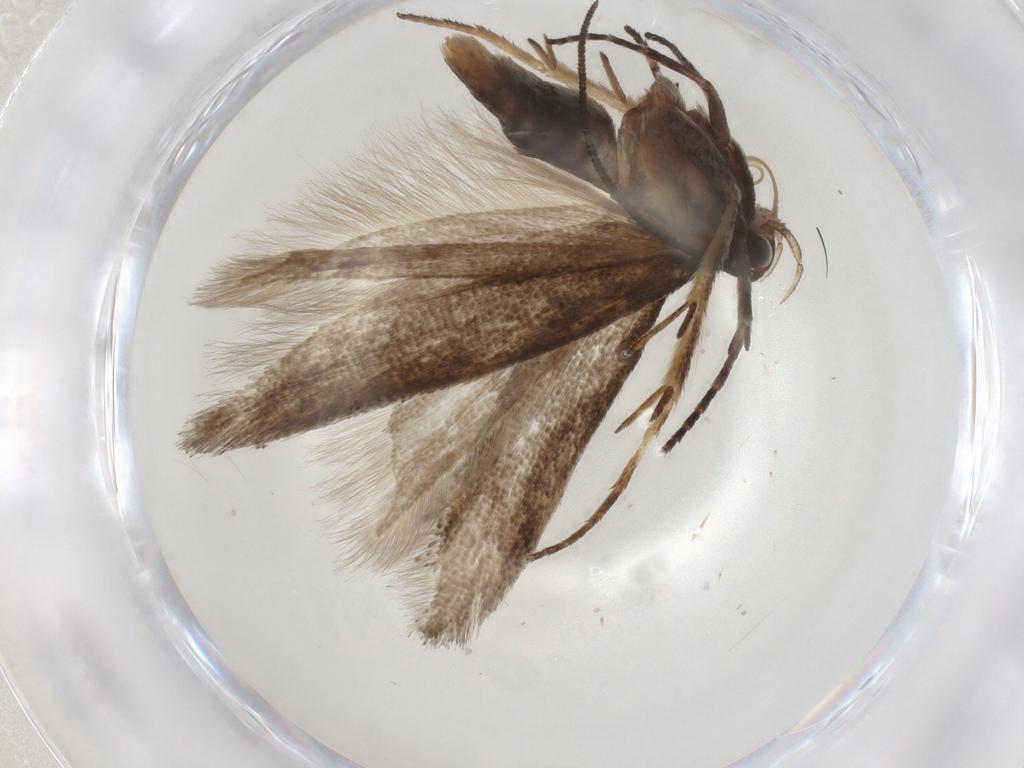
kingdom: Animalia
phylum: Arthropoda
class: Insecta
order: Lepidoptera
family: Gelechiidae
